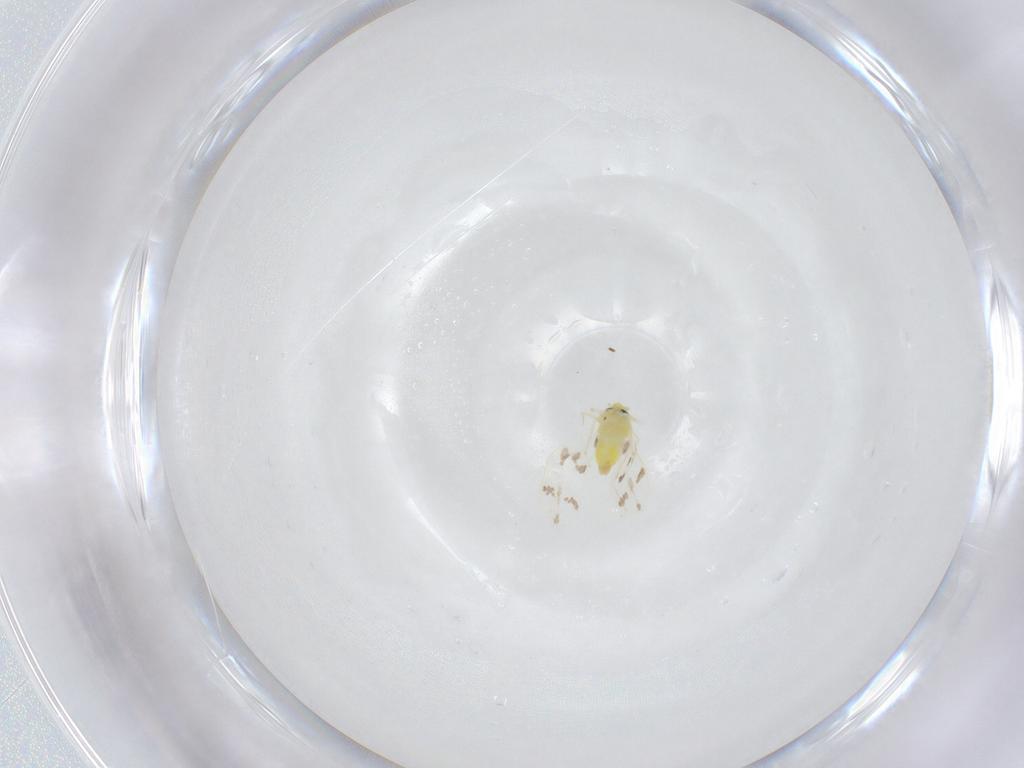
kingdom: Animalia
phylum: Arthropoda
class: Insecta
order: Hemiptera
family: Aleyrodidae
